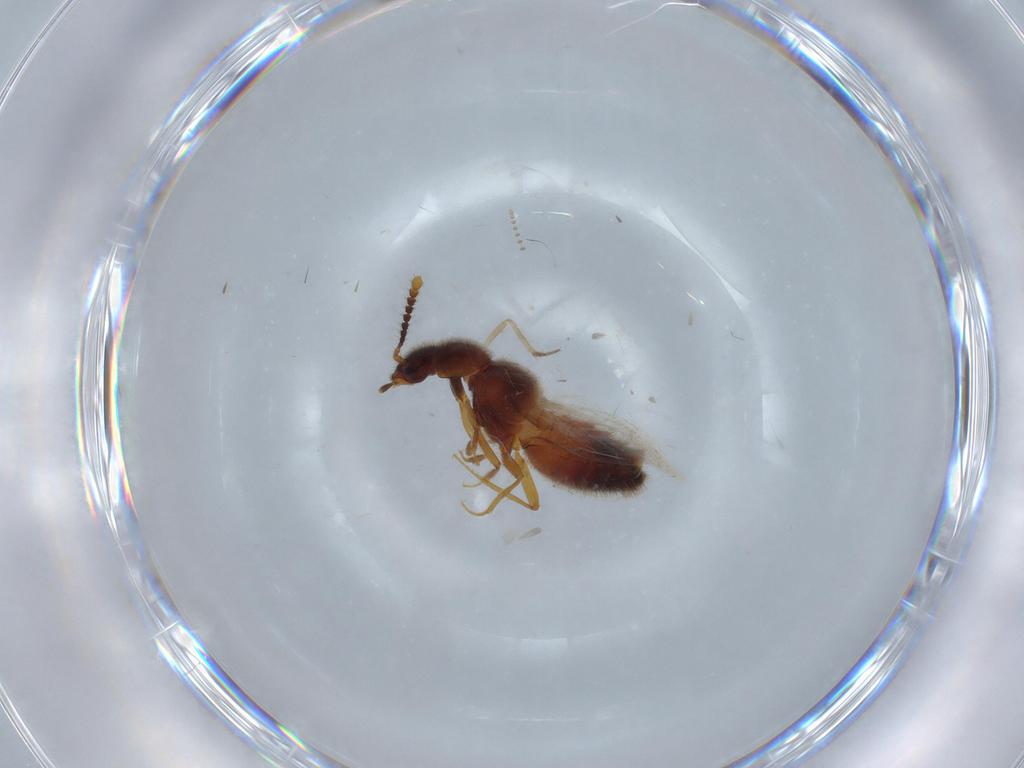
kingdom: Animalia
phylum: Arthropoda
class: Insecta
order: Coleoptera
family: Staphylinidae
